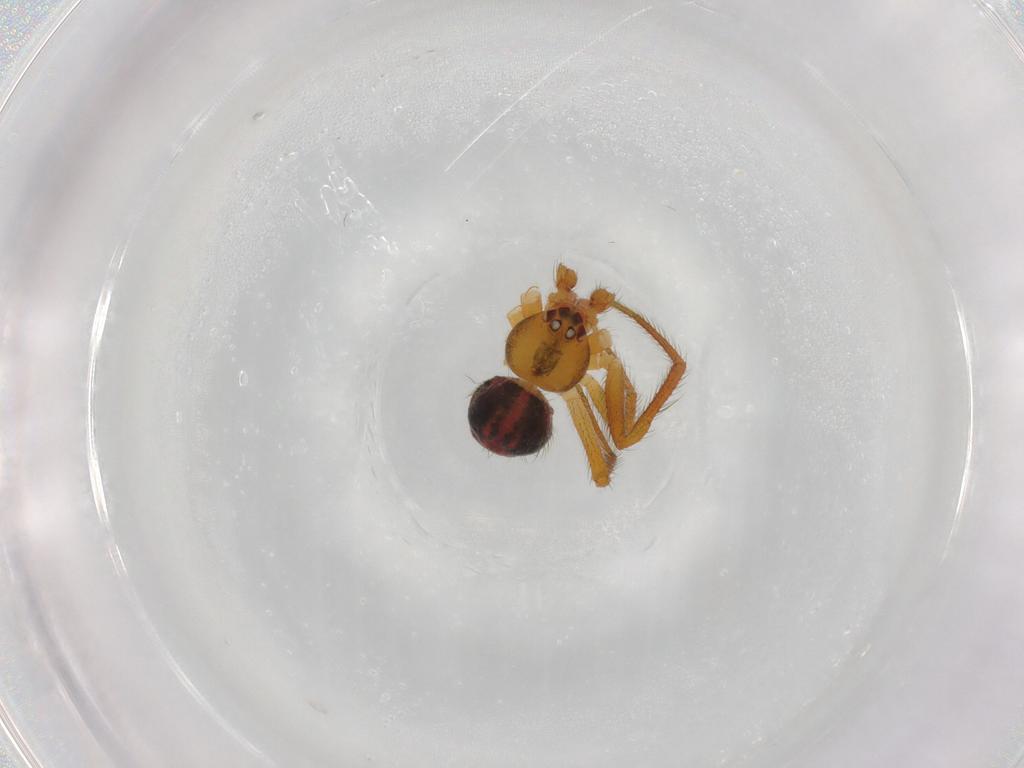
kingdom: Animalia
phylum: Arthropoda
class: Arachnida
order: Araneae
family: Theridiidae
